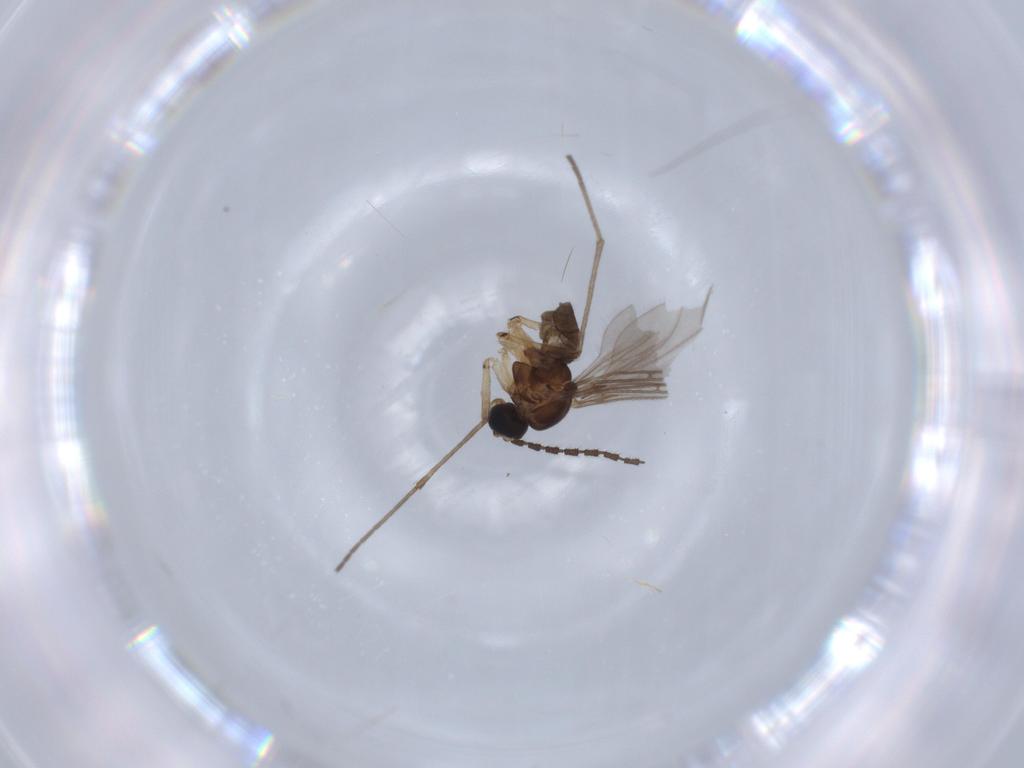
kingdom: Animalia
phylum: Arthropoda
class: Insecta
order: Diptera
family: Sciaridae
